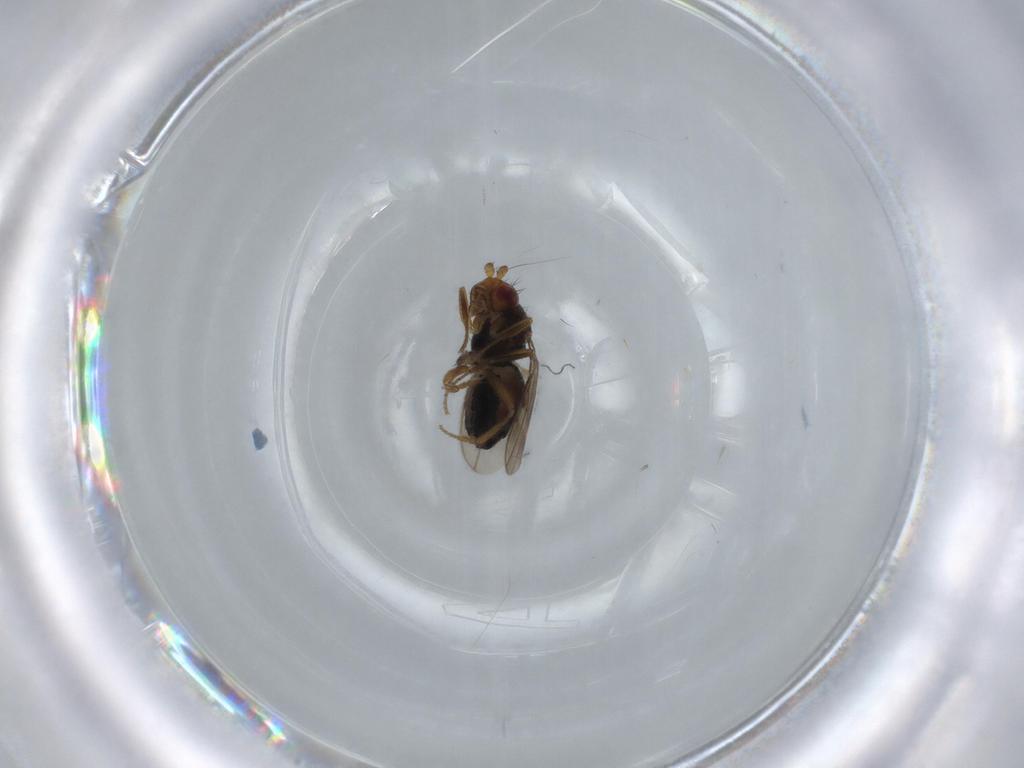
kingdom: Animalia
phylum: Arthropoda
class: Insecta
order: Diptera
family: Sphaeroceridae
